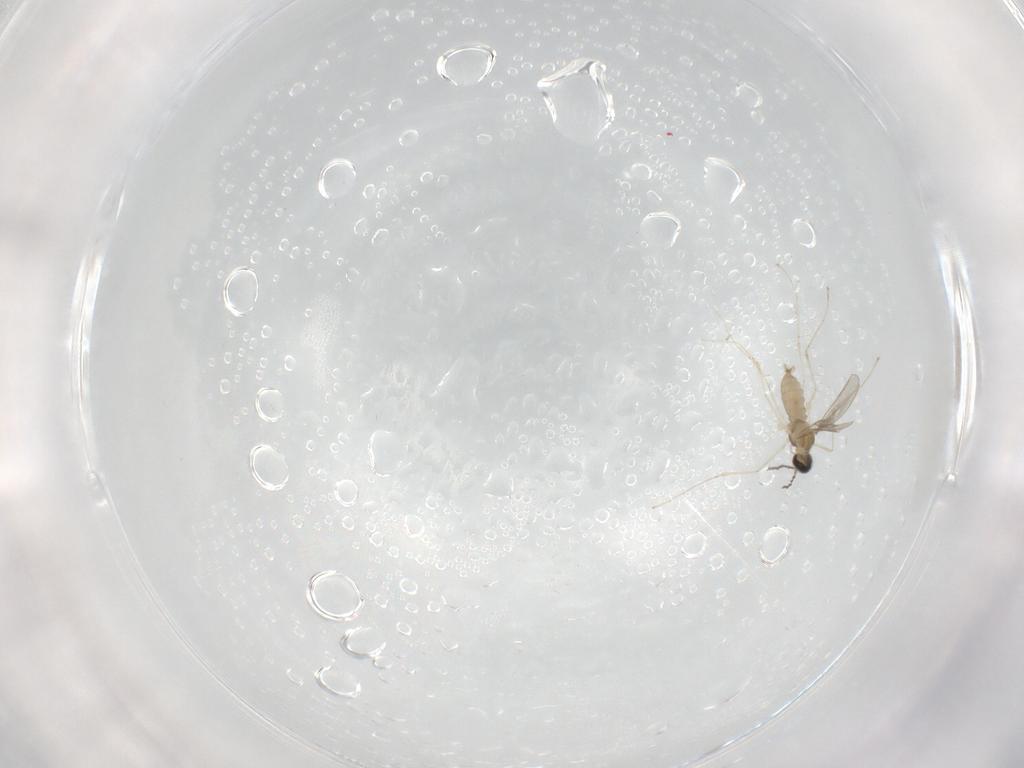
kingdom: Animalia
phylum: Arthropoda
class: Insecta
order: Diptera
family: Cecidomyiidae
